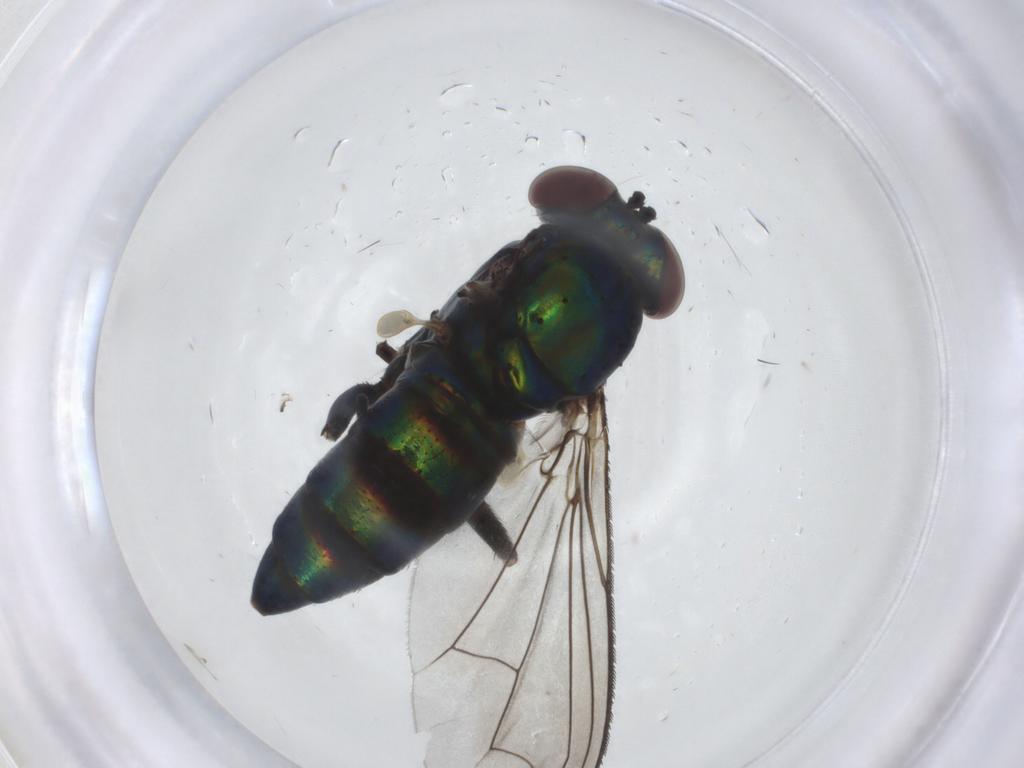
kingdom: Animalia
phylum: Arthropoda
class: Insecta
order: Diptera
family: Dolichopodidae
